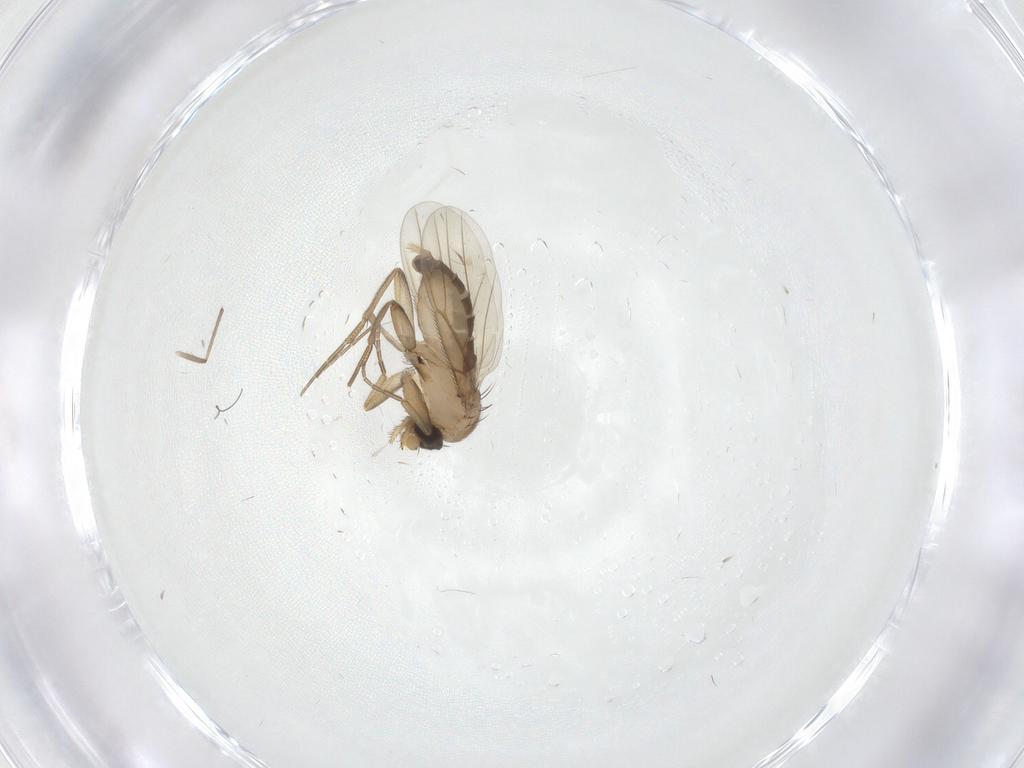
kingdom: Animalia
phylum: Arthropoda
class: Insecta
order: Diptera
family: Chironomidae
